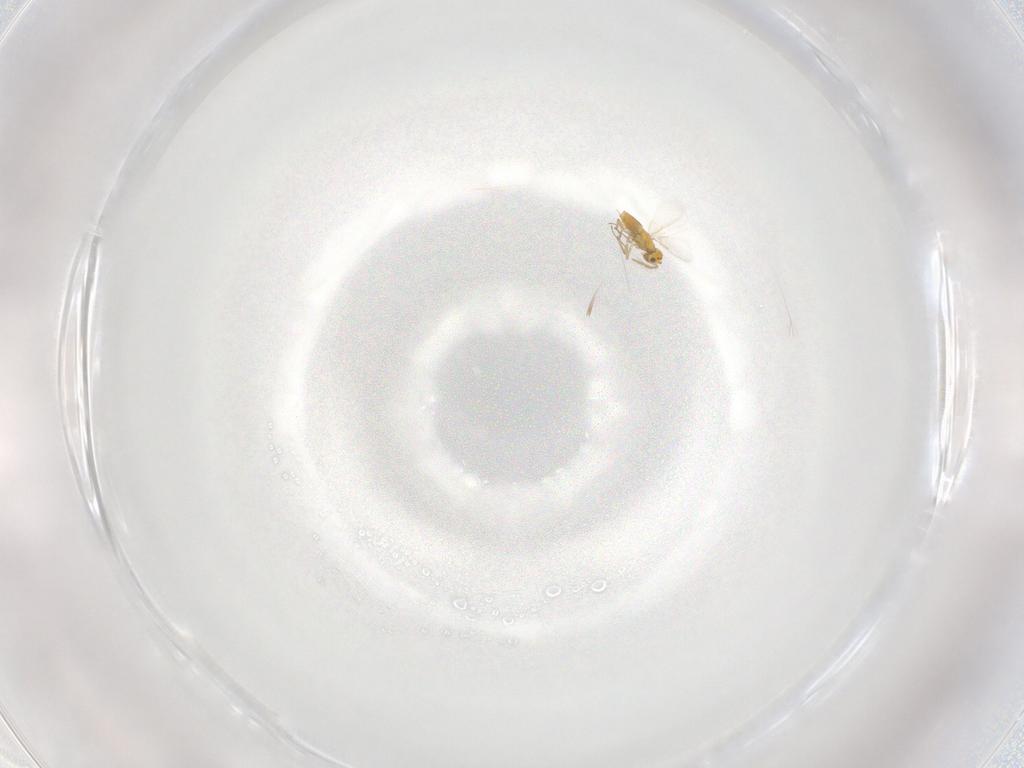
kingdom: Animalia
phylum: Arthropoda
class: Insecta
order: Hymenoptera
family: Aphelinidae
